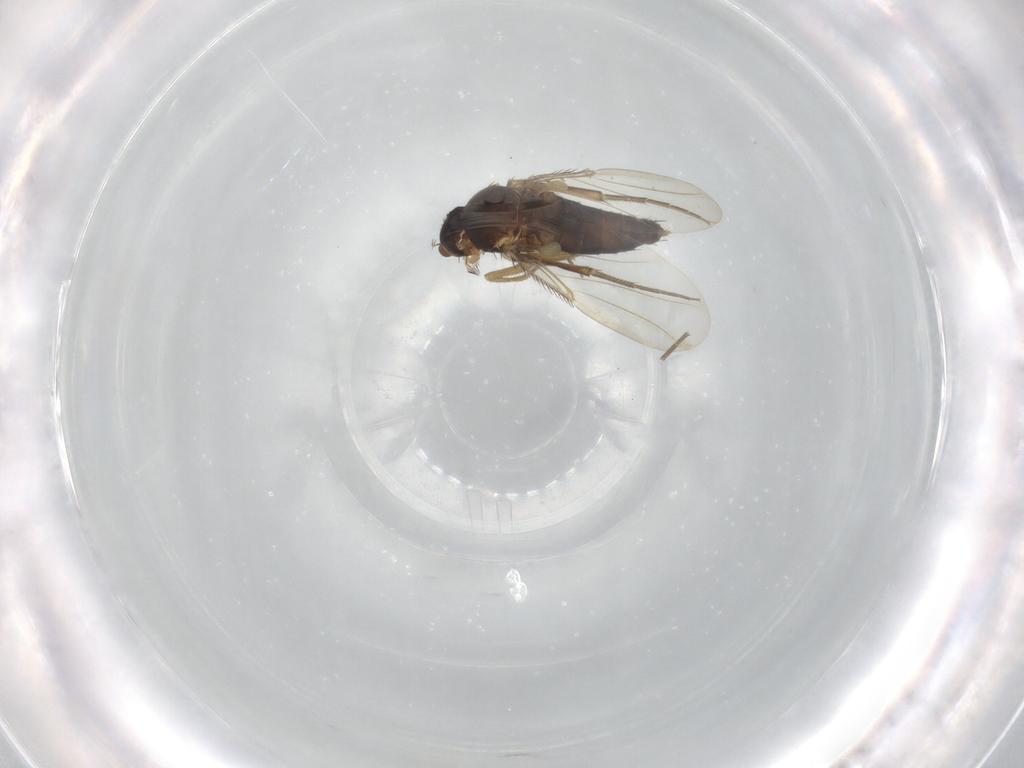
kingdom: Animalia
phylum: Arthropoda
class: Insecta
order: Diptera
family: Phoridae
